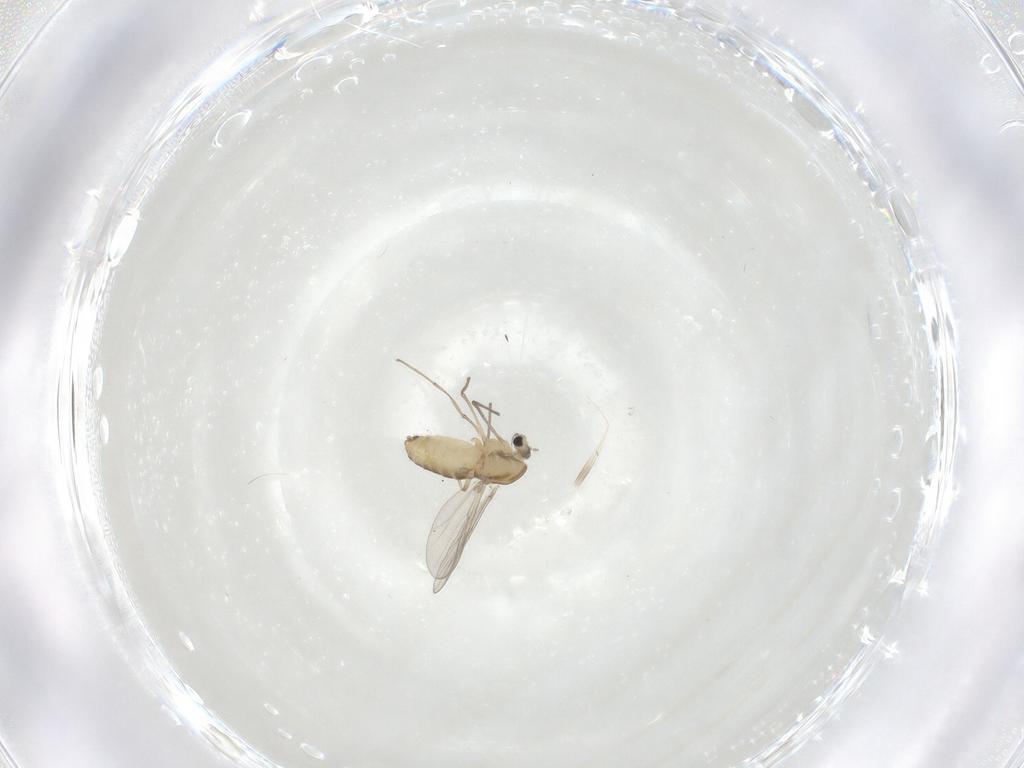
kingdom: Animalia
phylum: Arthropoda
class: Insecta
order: Diptera
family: Chironomidae
